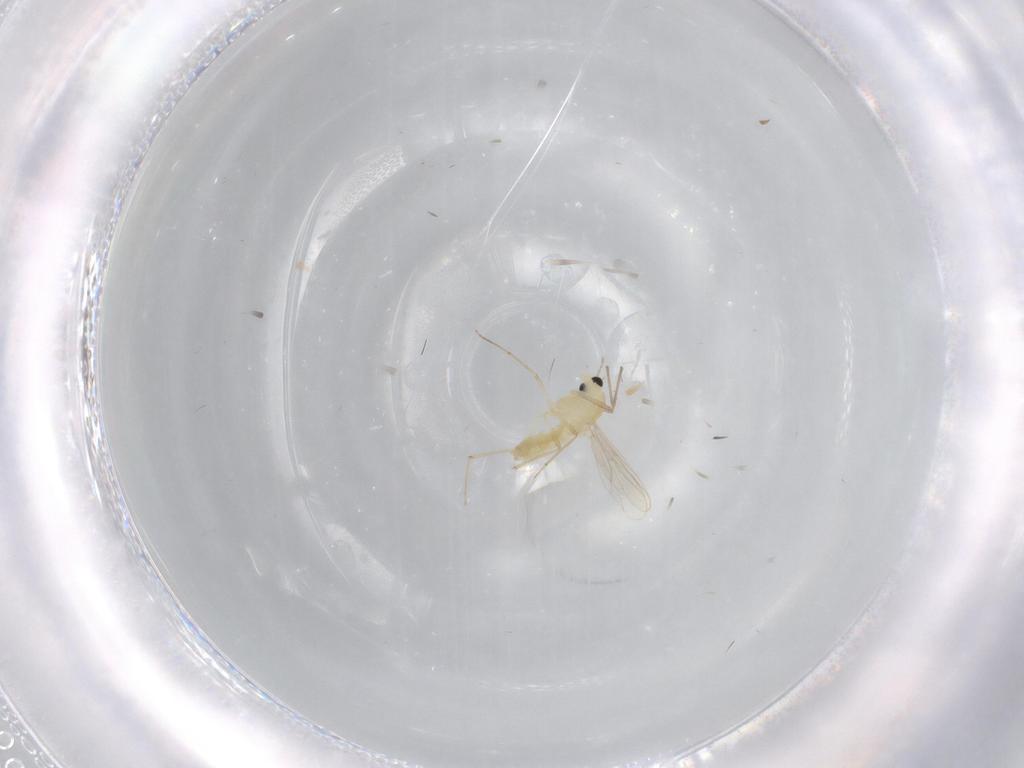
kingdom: Animalia
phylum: Arthropoda
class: Insecta
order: Diptera
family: Chironomidae
